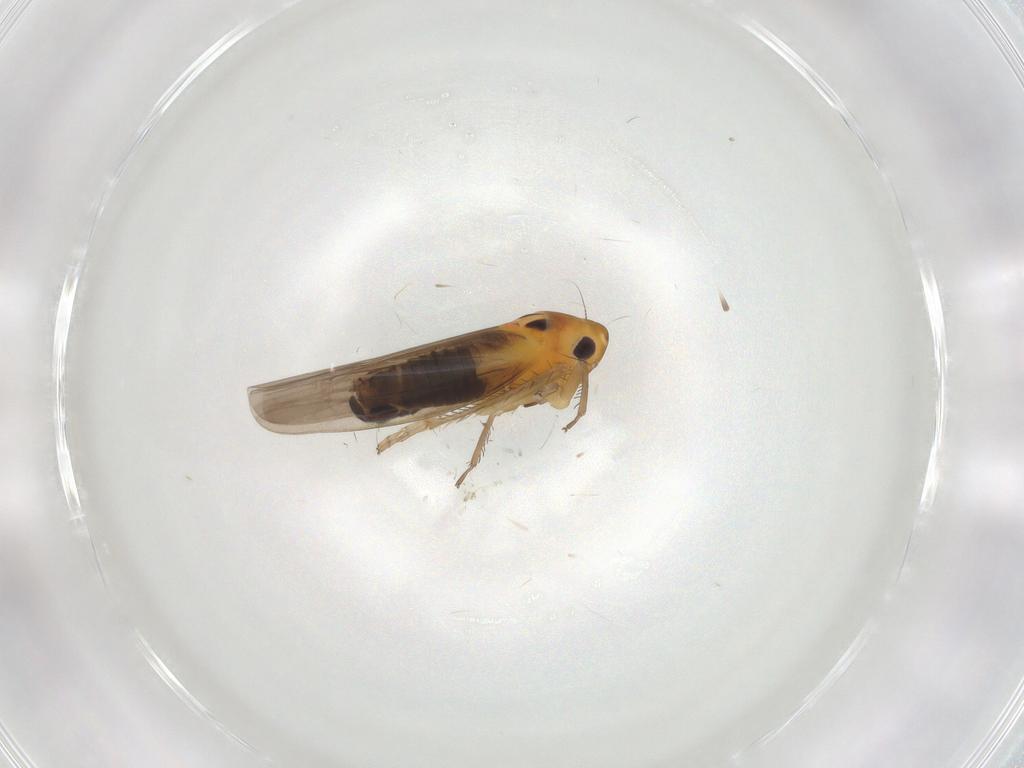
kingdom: Animalia
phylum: Arthropoda
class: Insecta
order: Hemiptera
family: Cicadellidae
